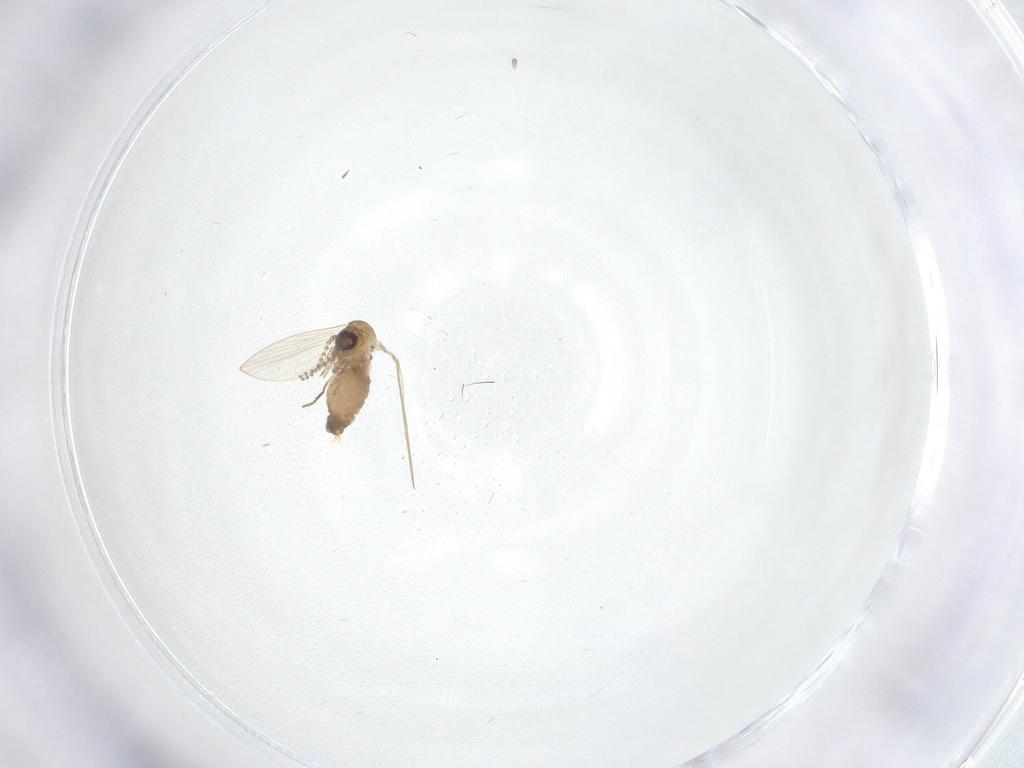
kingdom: Animalia
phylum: Arthropoda
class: Insecta
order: Diptera
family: Psychodidae
